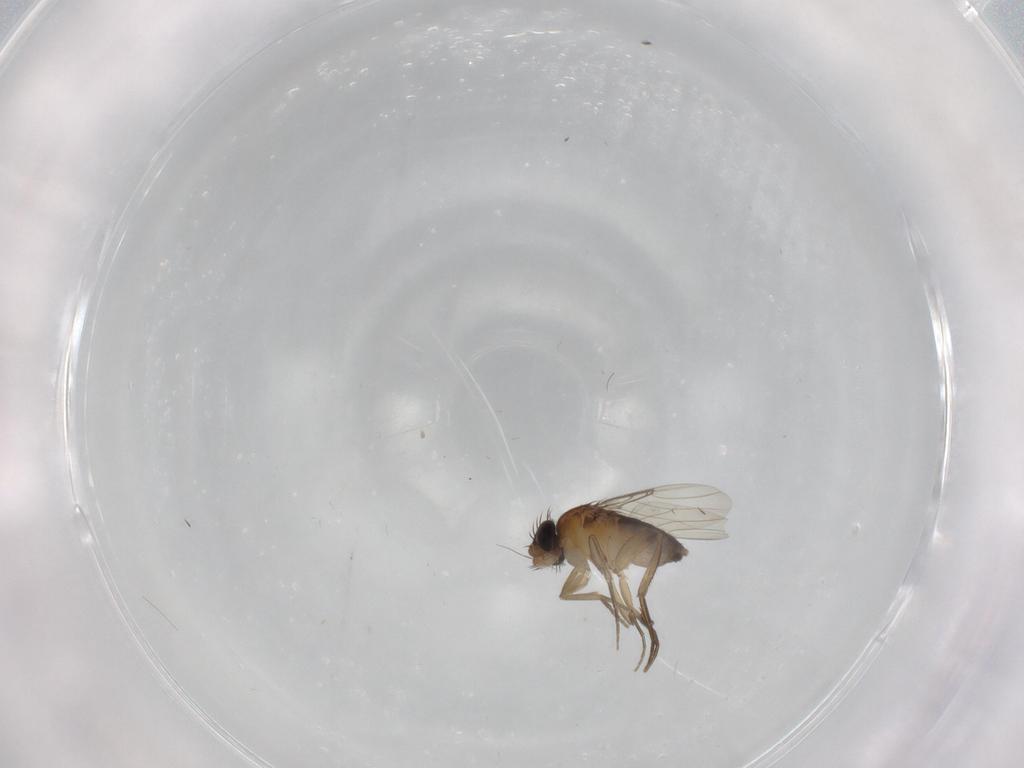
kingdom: Animalia
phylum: Arthropoda
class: Insecta
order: Diptera
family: Phoridae
